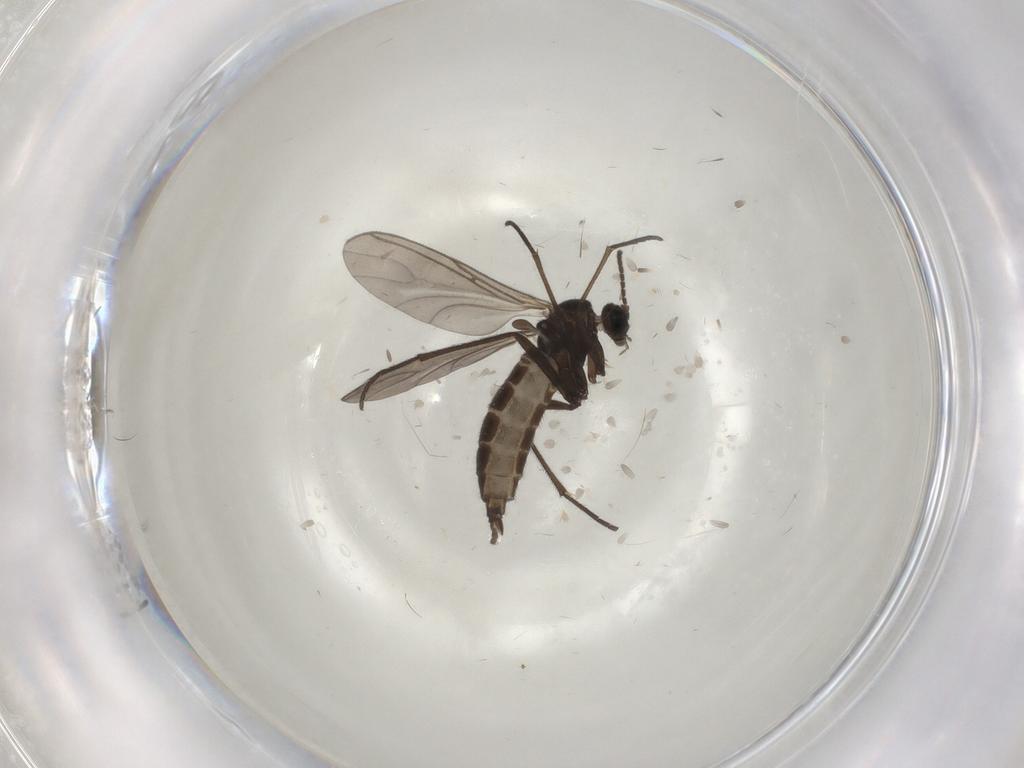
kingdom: Animalia
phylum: Arthropoda
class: Insecta
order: Diptera
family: Sciaridae
